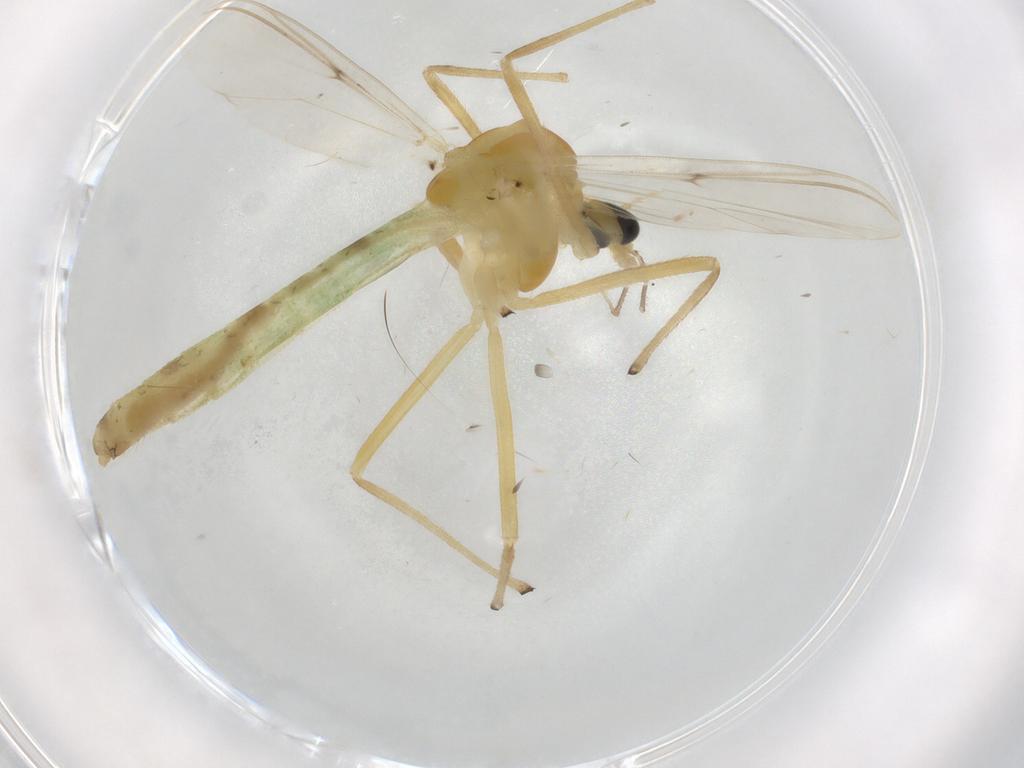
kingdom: Animalia
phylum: Arthropoda
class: Insecta
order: Diptera
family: Chironomidae
